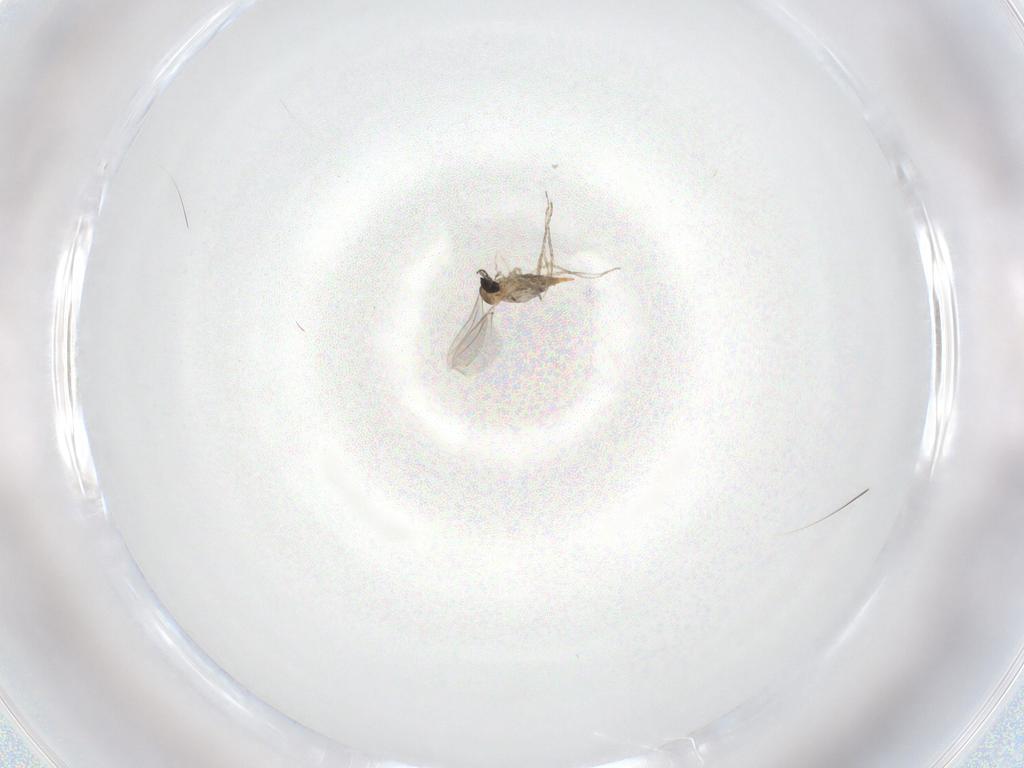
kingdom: Animalia
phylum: Arthropoda
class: Insecta
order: Diptera
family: Cecidomyiidae
